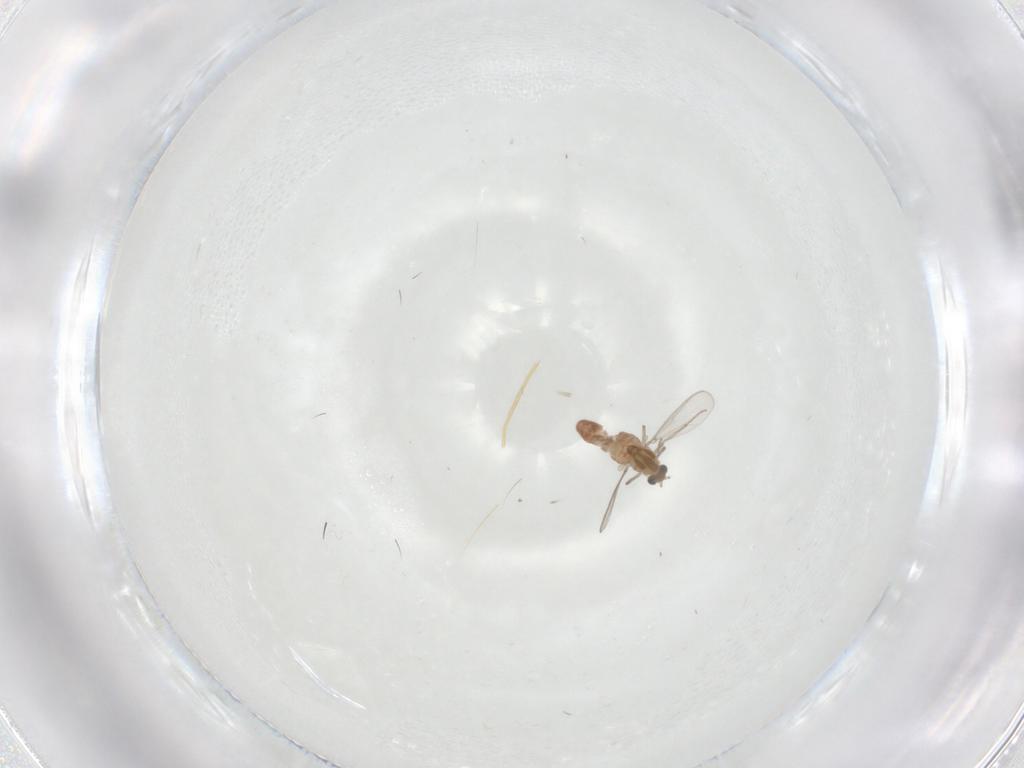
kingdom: Animalia
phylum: Arthropoda
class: Insecta
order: Diptera
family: Chironomidae
